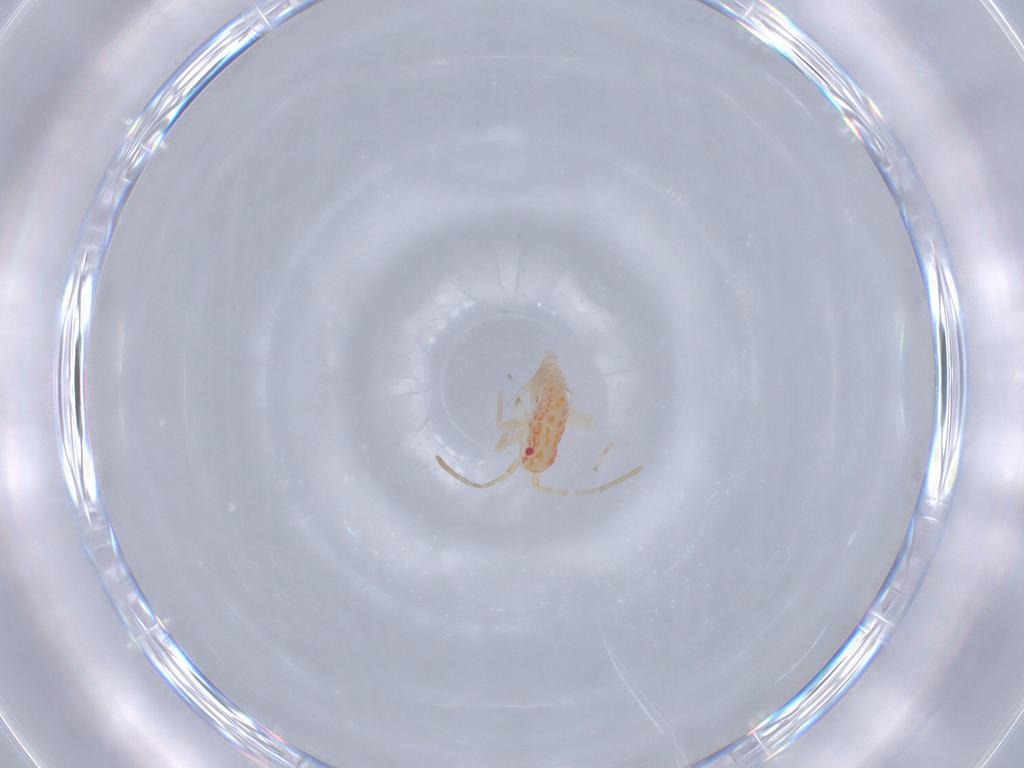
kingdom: Animalia
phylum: Arthropoda
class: Insecta
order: Hemiptera
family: Miridae
